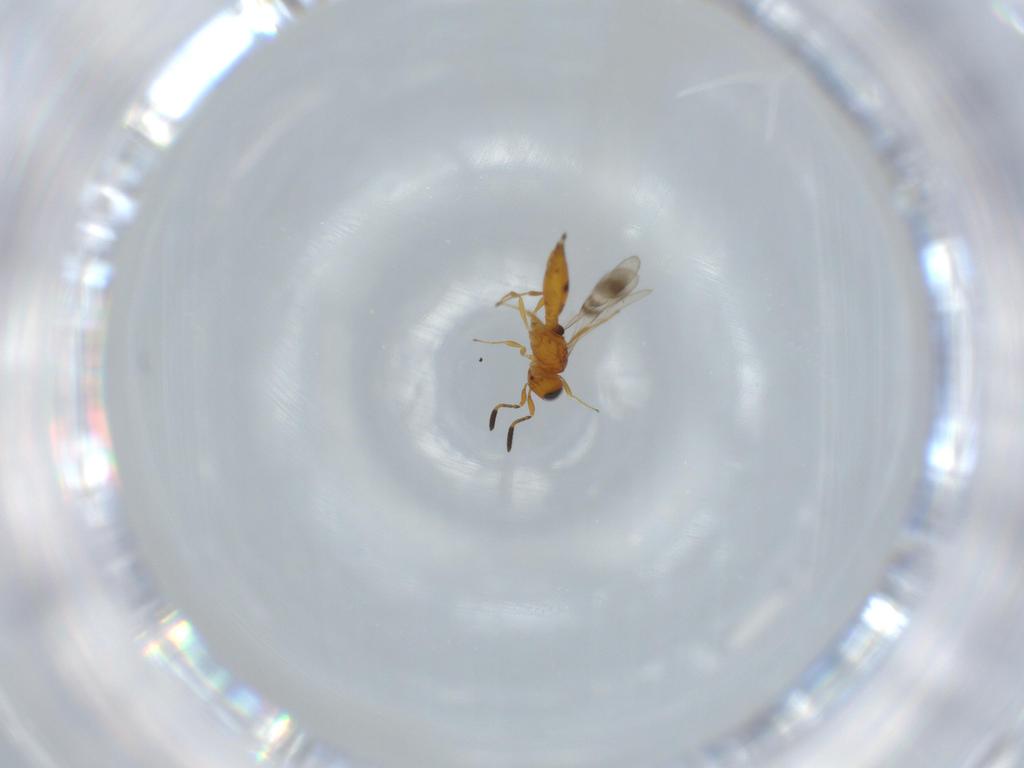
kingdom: Animalia
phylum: Arthropoda
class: Insecta
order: Hymenoptera
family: Scelionidae
